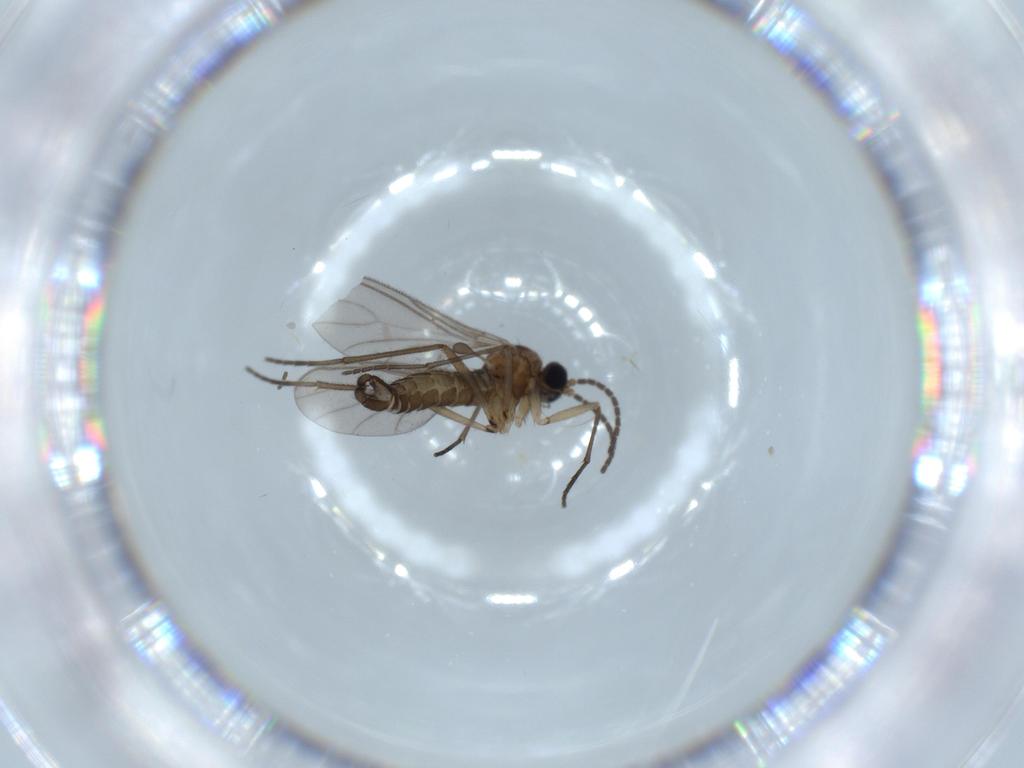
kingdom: Animalia
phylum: Arthropoda
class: Insecta
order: Diptera
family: Sciaridae
